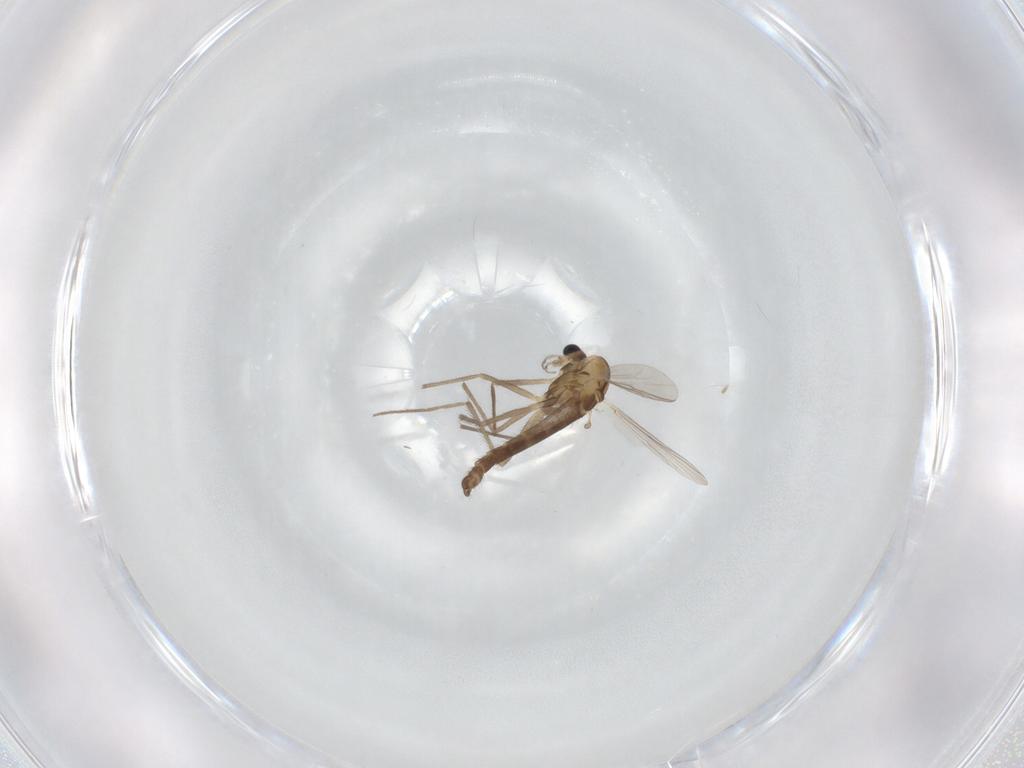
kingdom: Animalia
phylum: Arthropoda
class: Insecta
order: Diptera
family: Chironomidae
